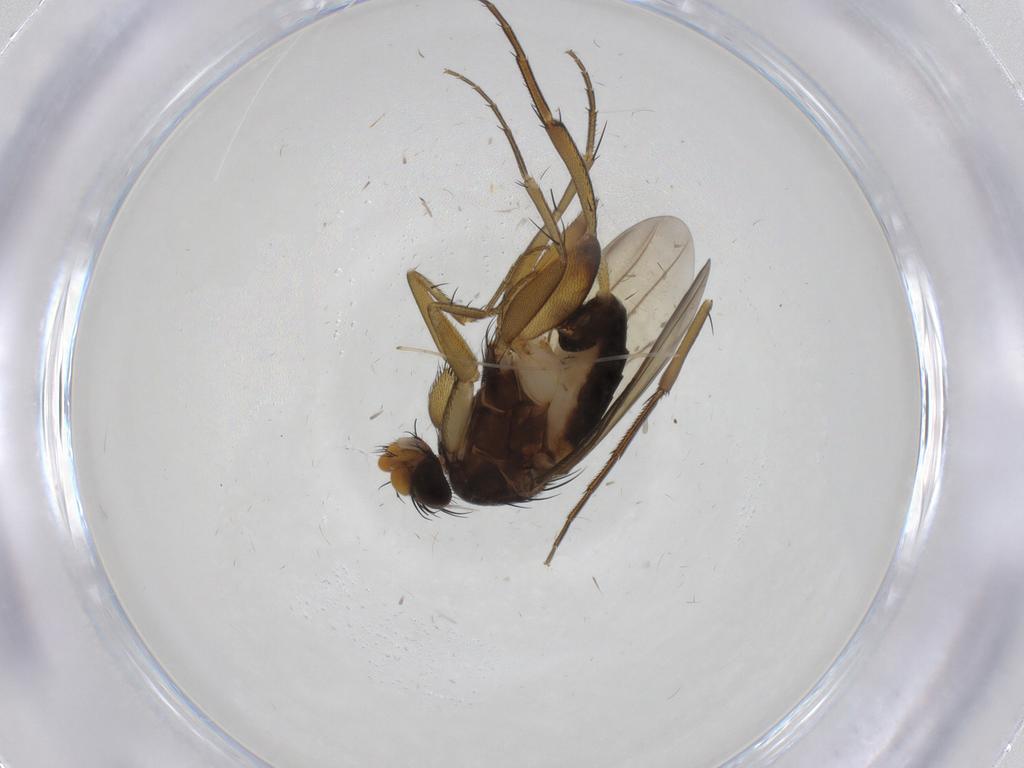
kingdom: Animalia
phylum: Arthropoda
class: Insecta
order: Diptera
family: Phoridae
